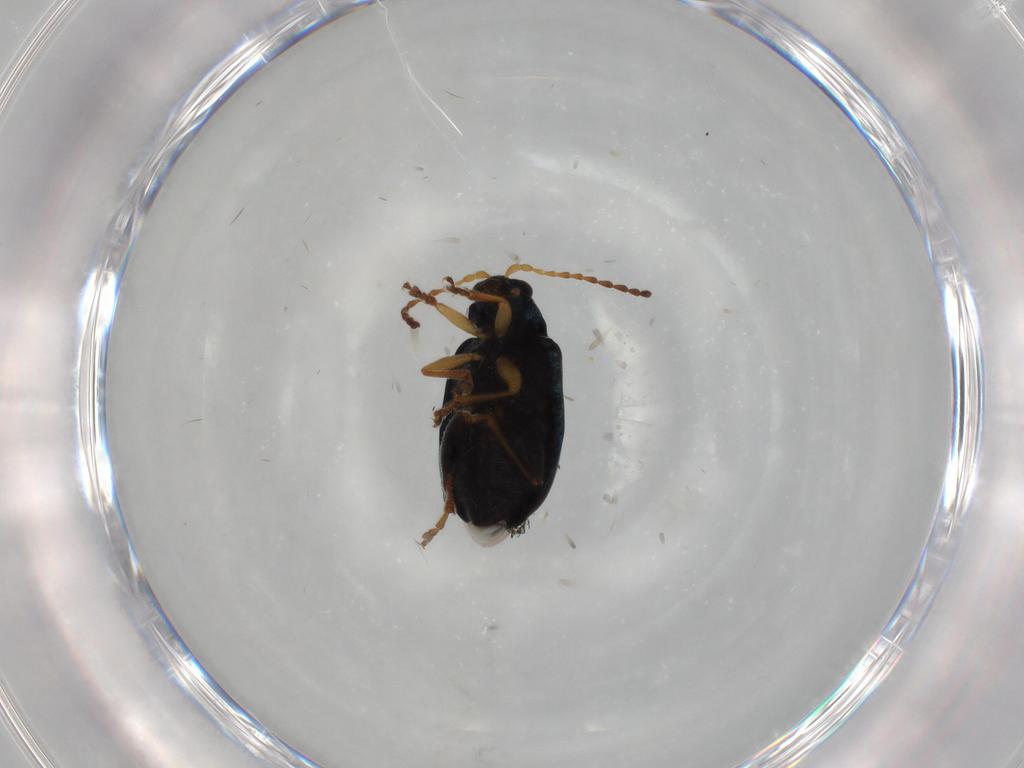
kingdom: Animalia
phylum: Arthropoda
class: Insecta
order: Coleoptera
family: Chrysomelidae
